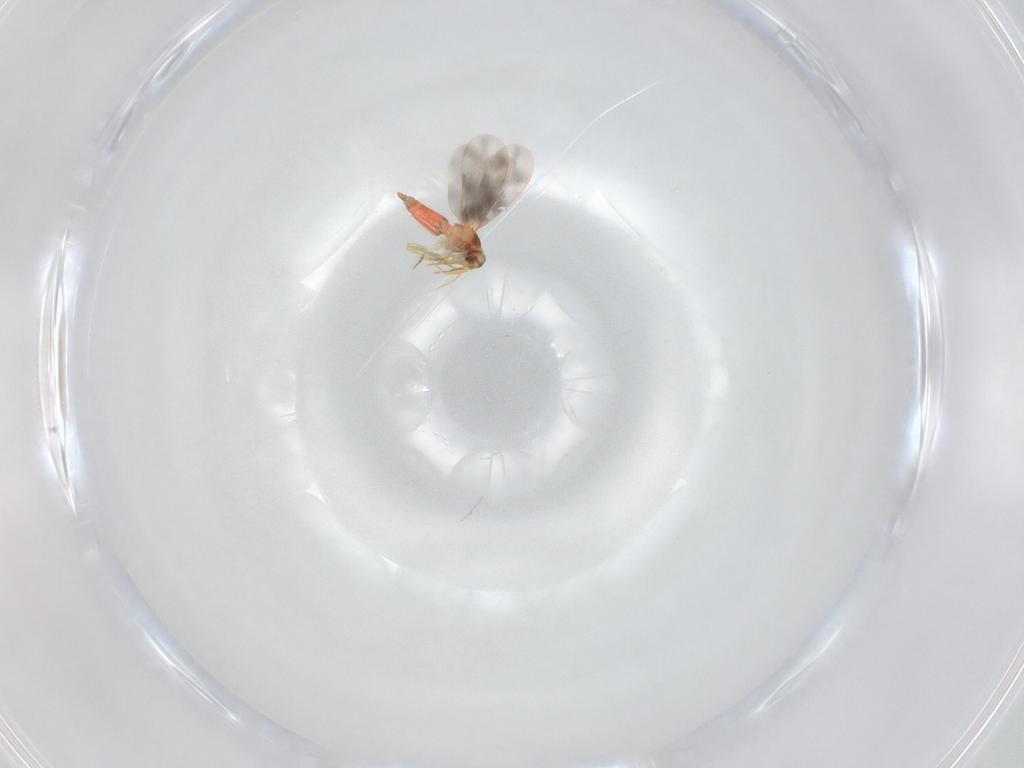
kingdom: Animalia
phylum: Arthropoda
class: Insecta
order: Hemiptera
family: Aleyrodidae
